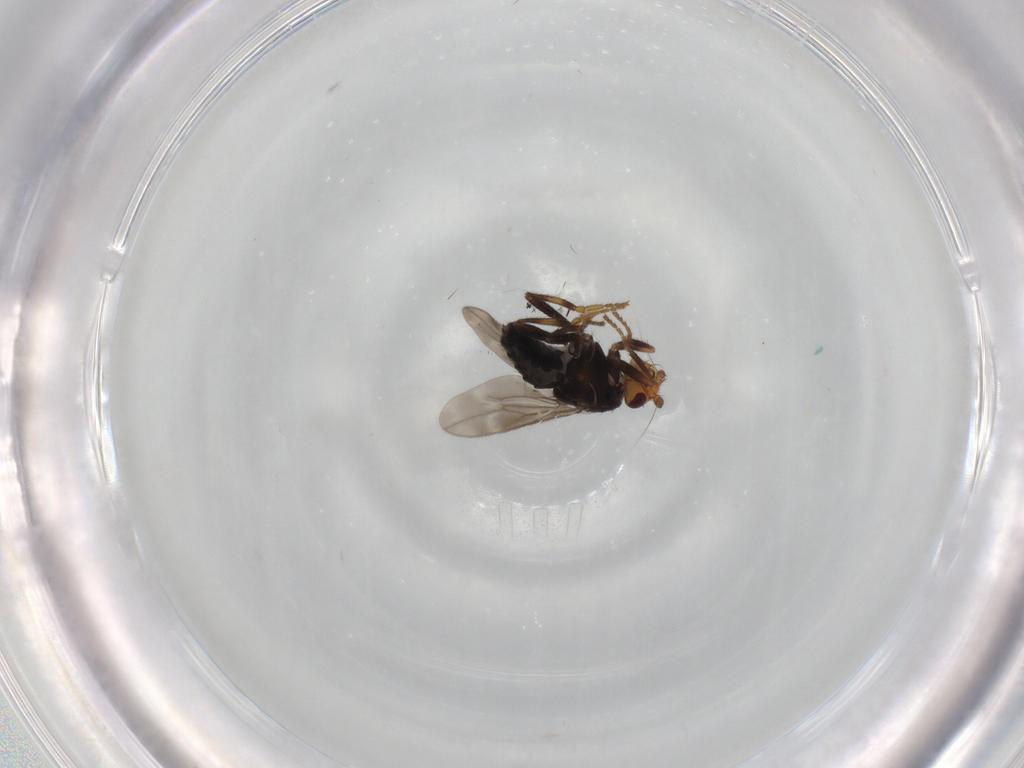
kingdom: Animalia
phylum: Arthropoda
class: Insecta
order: Diptera
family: Sphaeroceridae
